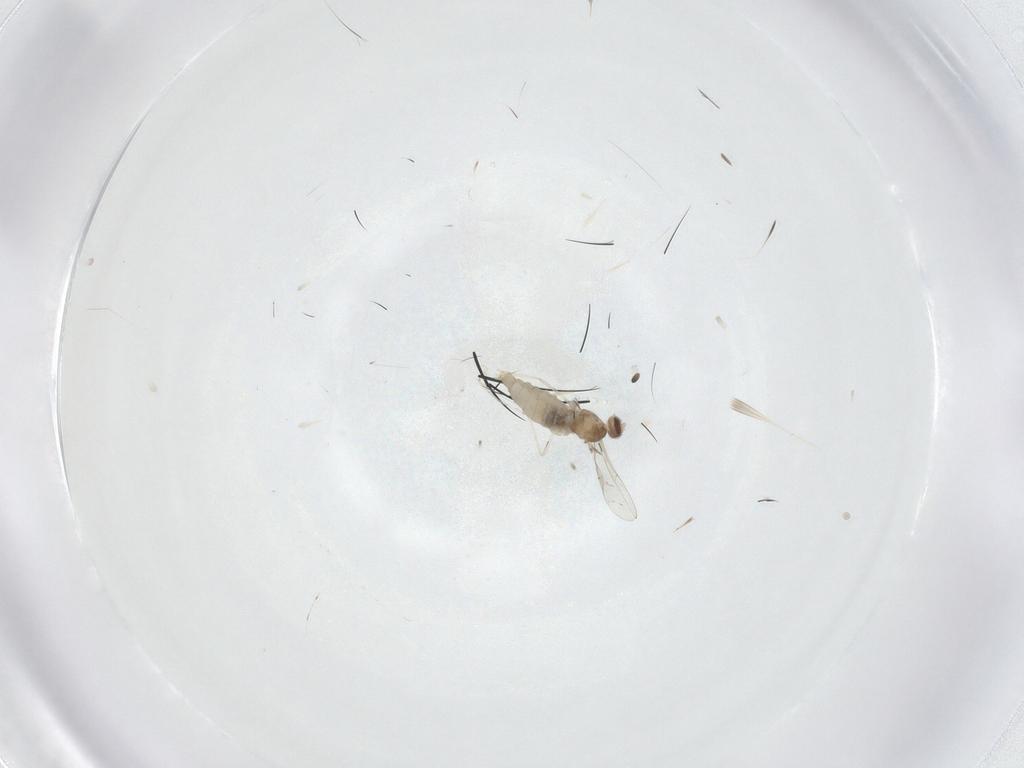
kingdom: Animalia
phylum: Arthropoda
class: Insecta
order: Diptera
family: Cecidomyiidae
